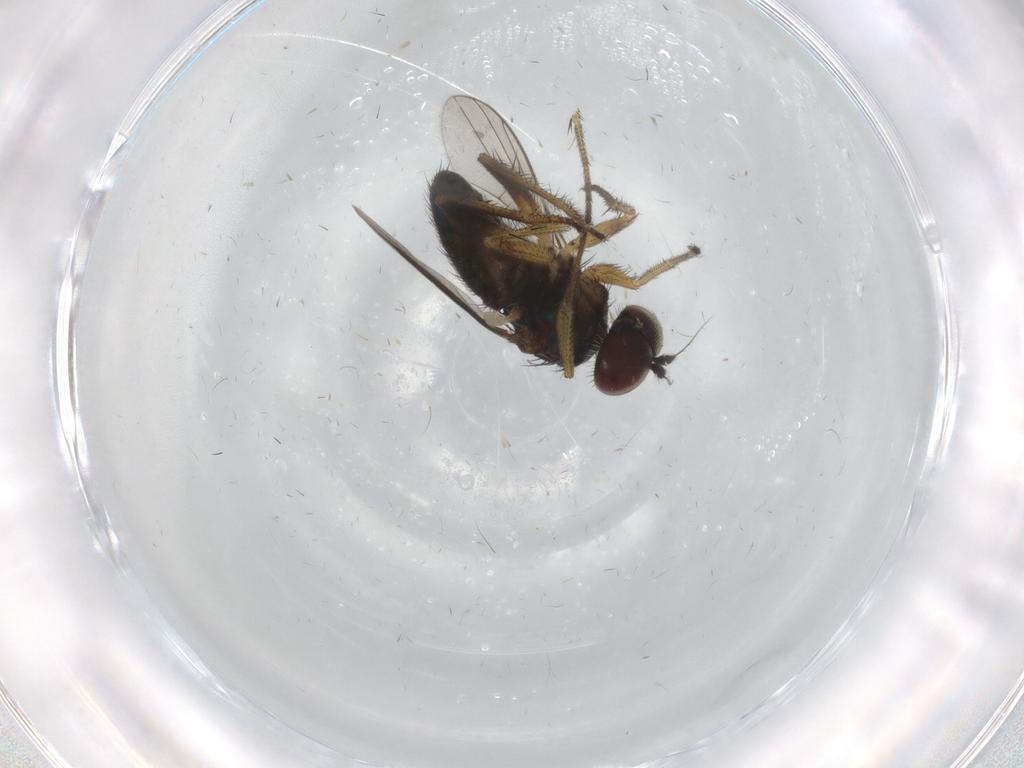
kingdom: Animalia
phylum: Arthropoda
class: Insecta
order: Diptera
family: Dolichopodidae
